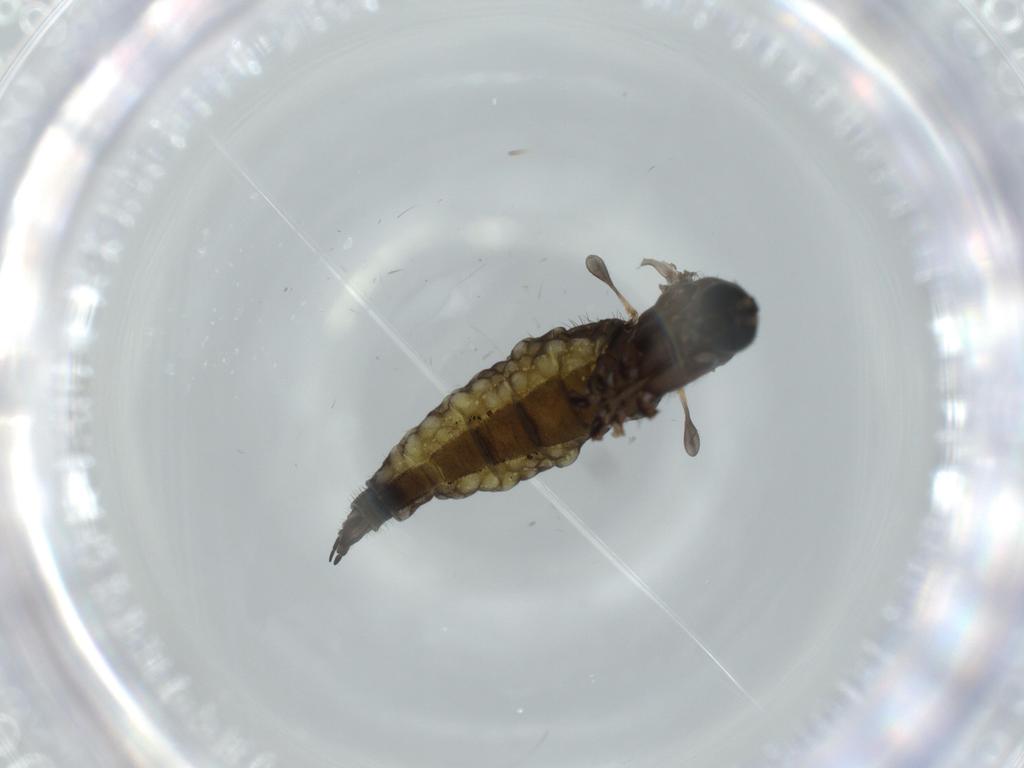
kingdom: Animalia
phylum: Arthropoda
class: Insecta
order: Diptera
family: Sciaridae
